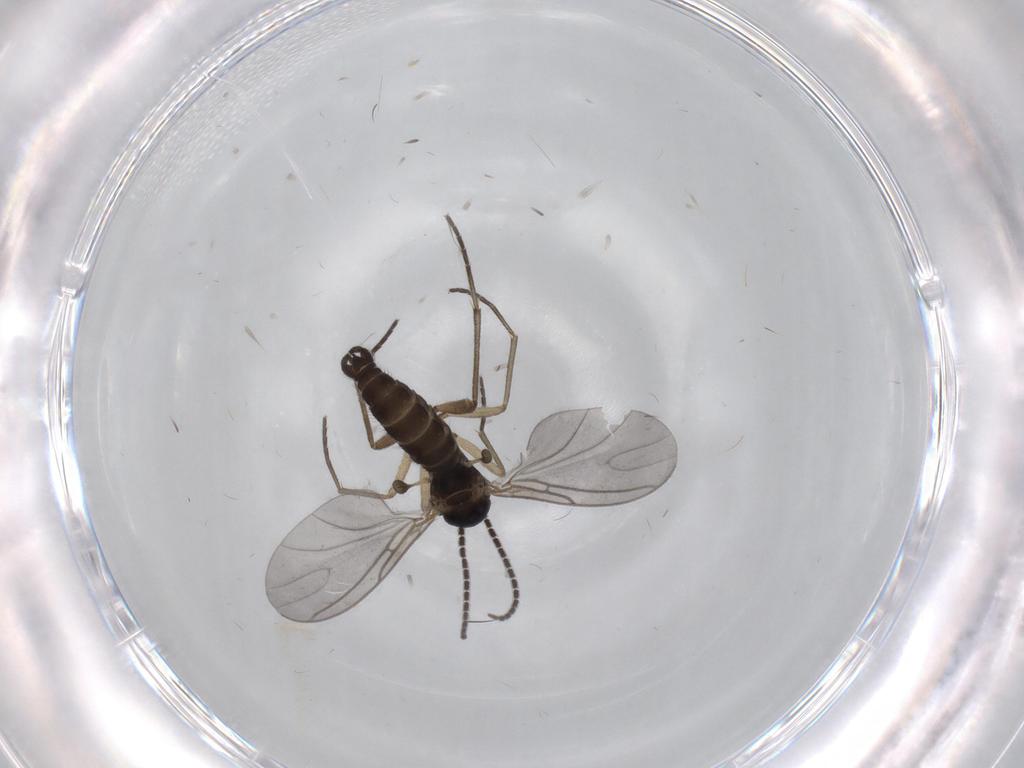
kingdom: Animalia
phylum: Arthropoda
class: Insecta
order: Diptera
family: Sciaridae
